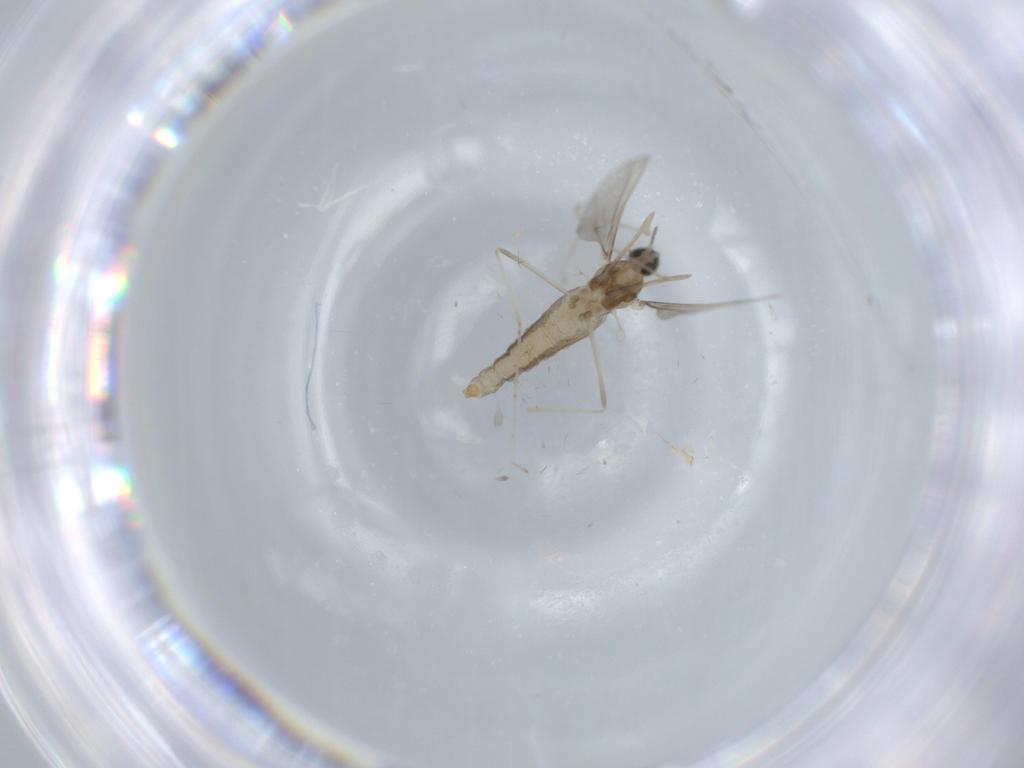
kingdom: Animalia
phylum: Arthropoda
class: Insecta
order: Diptera
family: Cecidomyiidae
